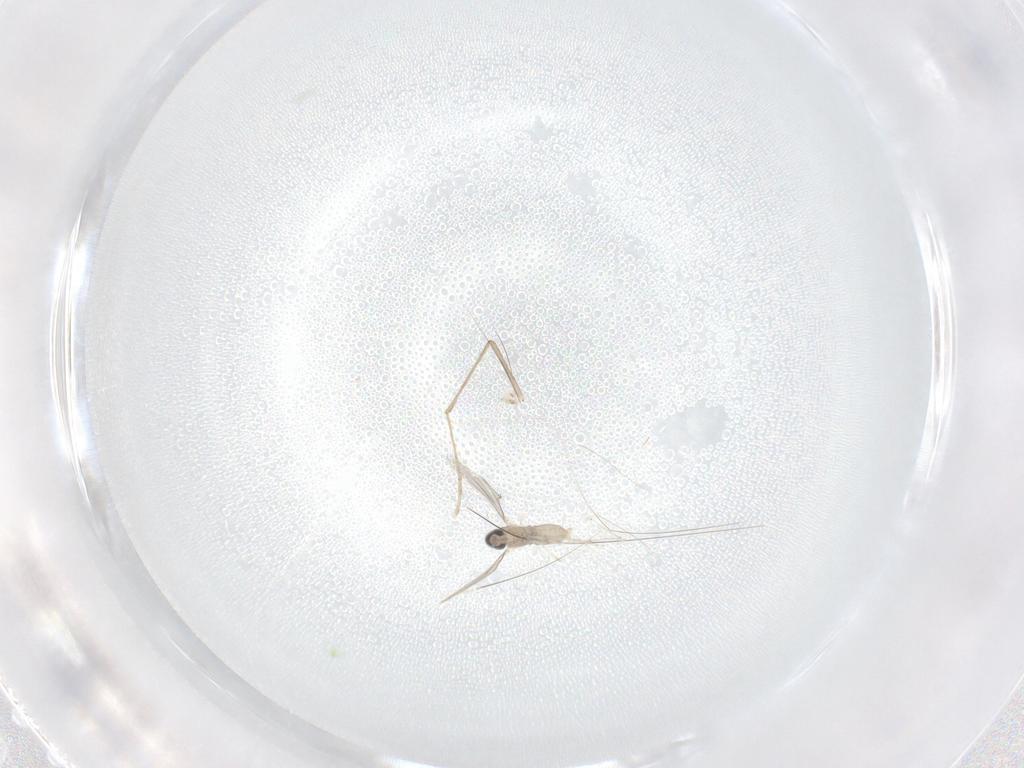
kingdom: Animalia
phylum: Arthropoda
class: Insecta
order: Diptera
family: Cecidomyiidae
